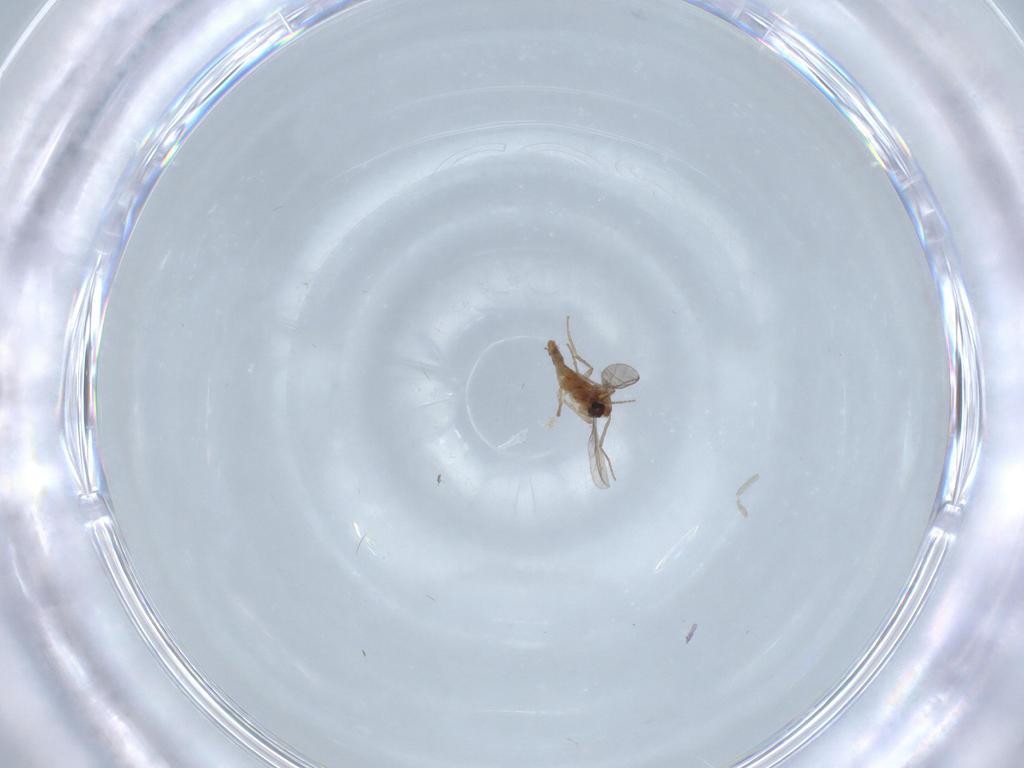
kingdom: Animalia
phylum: Arthropoda
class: Insecta
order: Diptera
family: Cecidomyiidae
